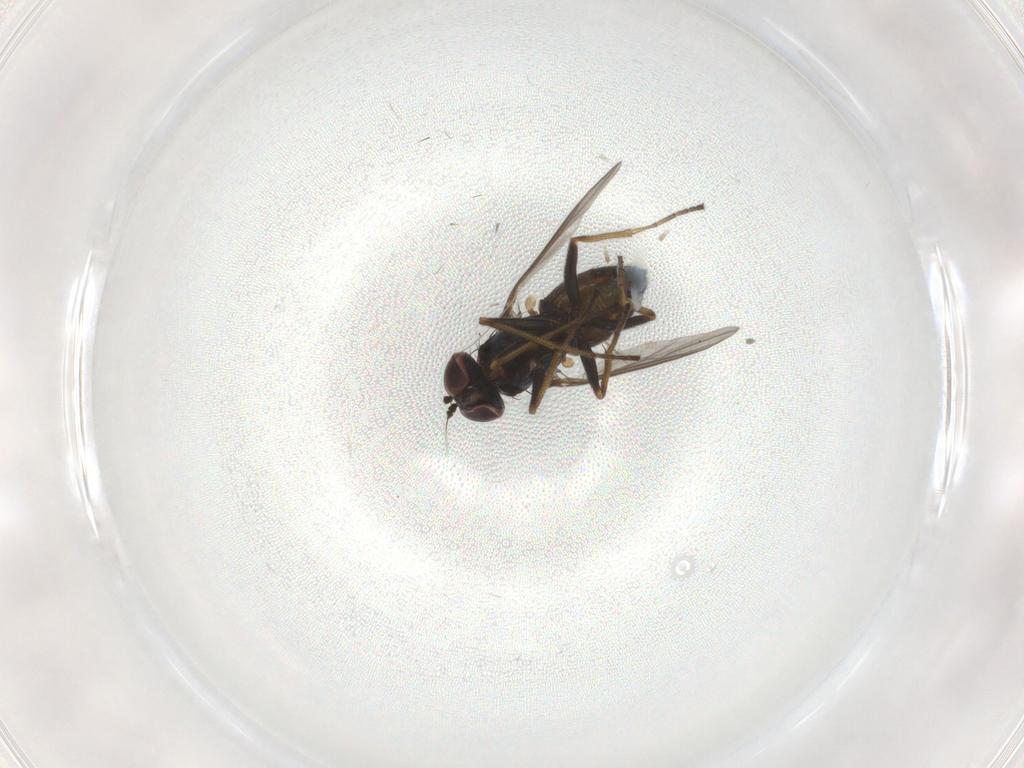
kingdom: Animalia
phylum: Arthropoda
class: Insecta
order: Diptera
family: Dolichopodidae
